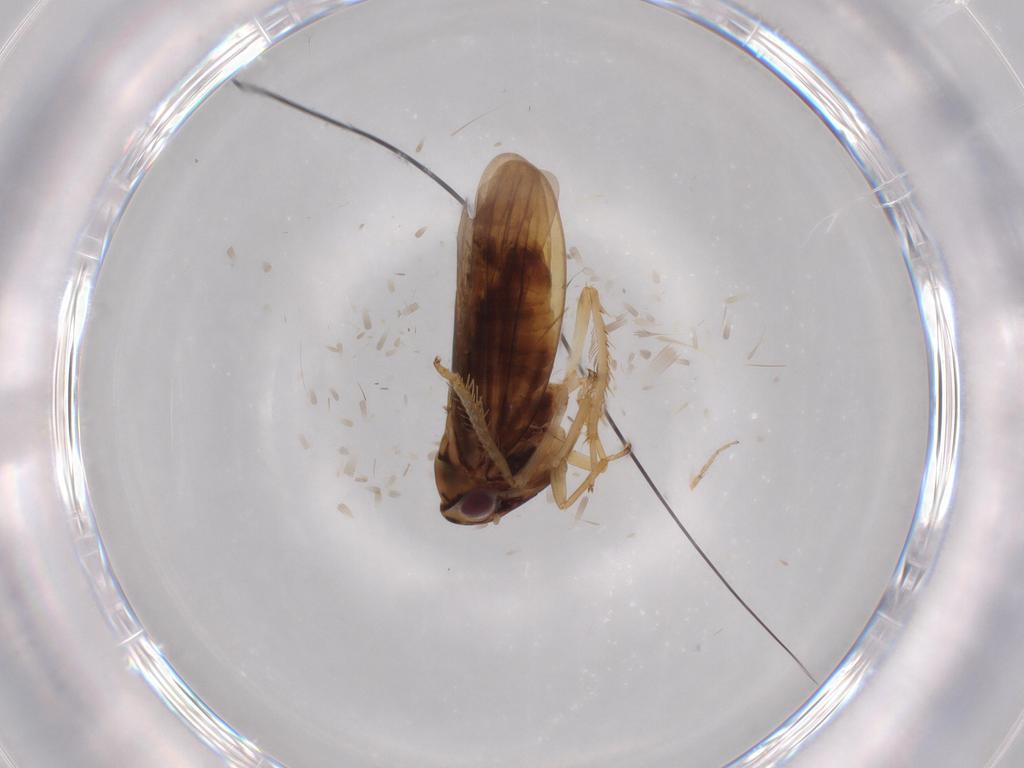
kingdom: Animalia
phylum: Arthropoda
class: Insecta
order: Hemiptera
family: Cicadellidae
